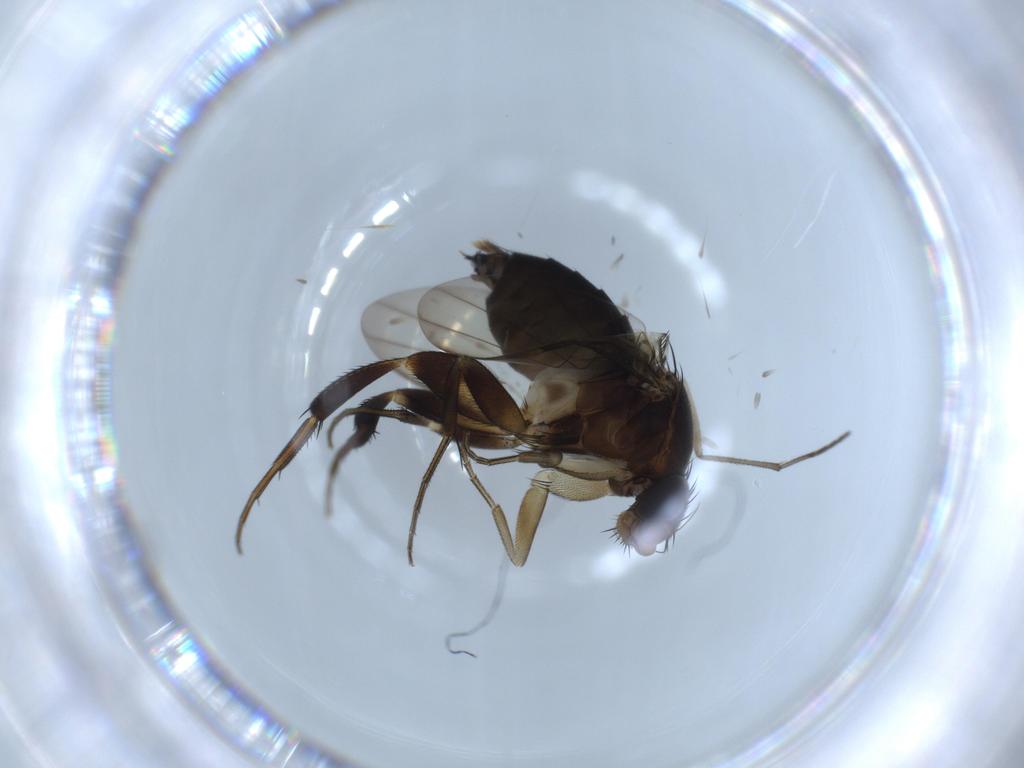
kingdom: Animalia
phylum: Arthropoda
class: Insecta
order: Diptera
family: Phoridae
